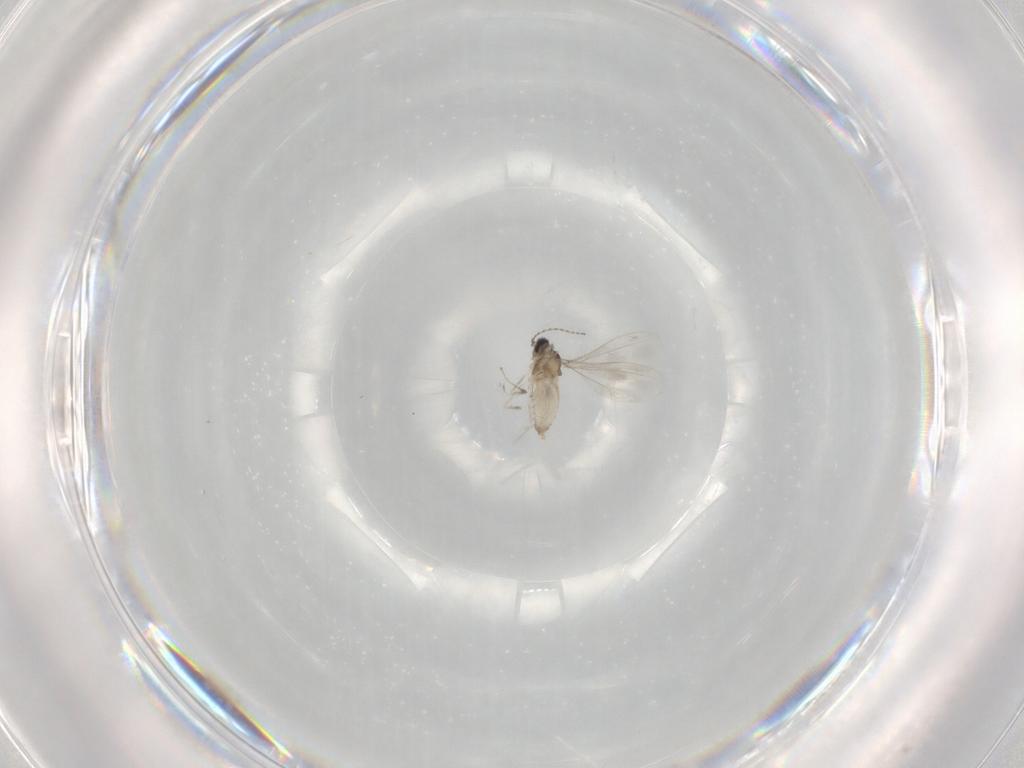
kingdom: Animalia
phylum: Arthropoda
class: Insecta
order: Diptera
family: Cecidomyiidae
